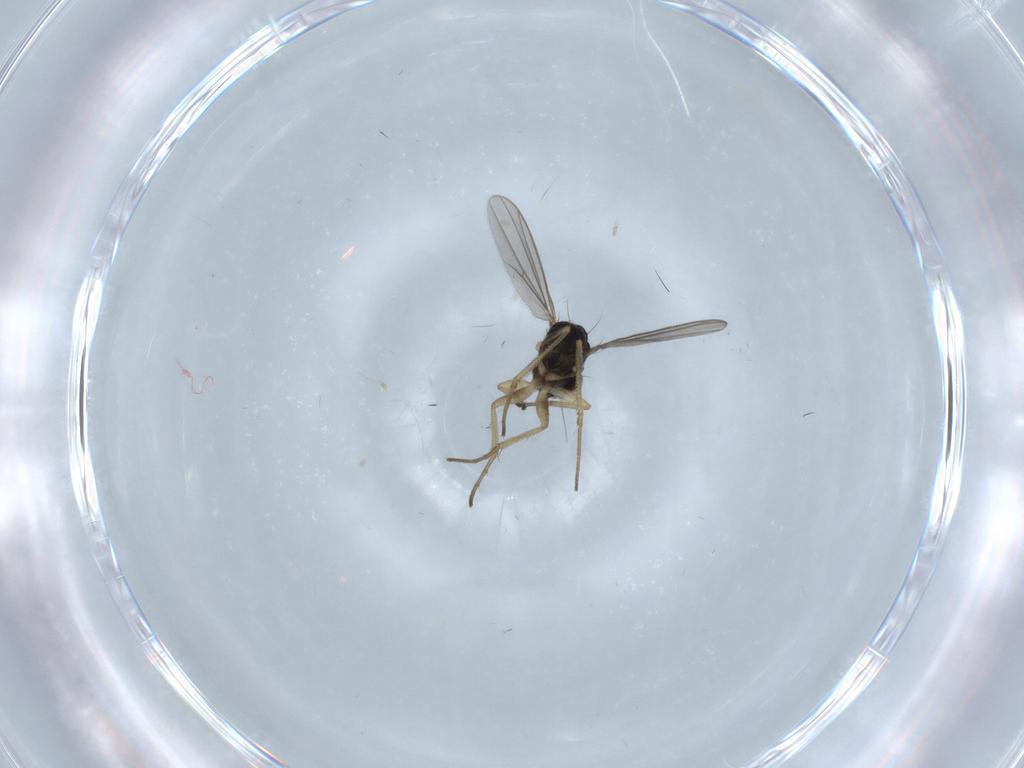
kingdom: Animalia
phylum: Arthropoda
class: Insecta
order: Diptera
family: Dolichopodidae
